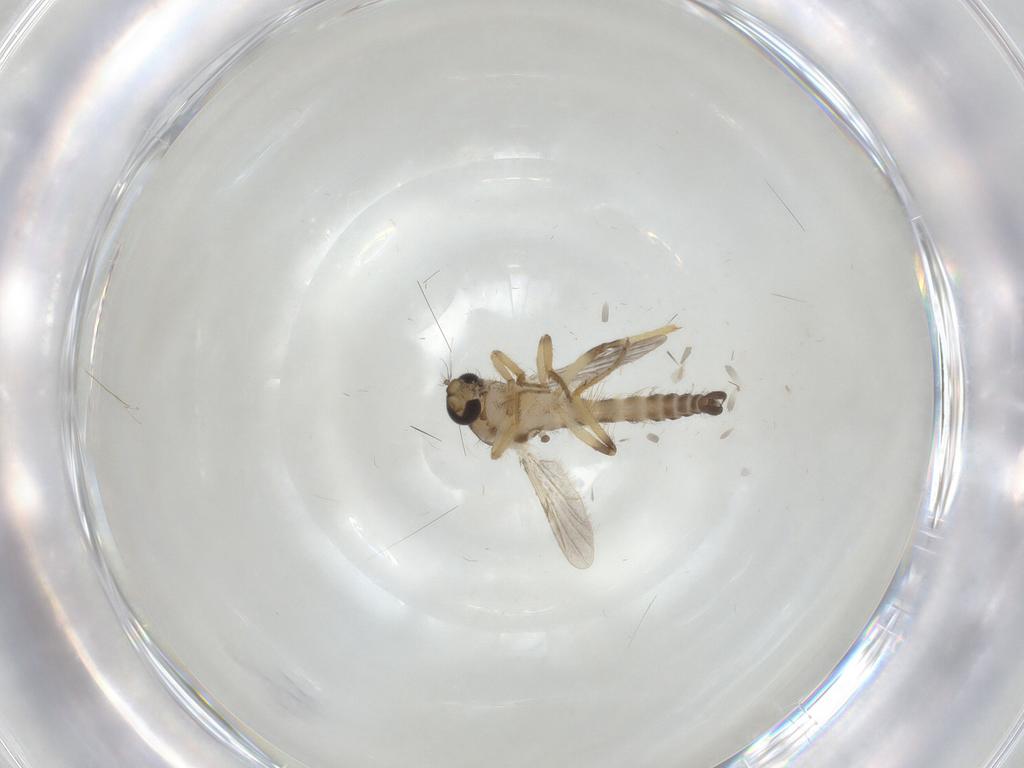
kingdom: Animalia
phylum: Arthropoda
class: Insecta
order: Diptera
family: Ceratopogonidae
